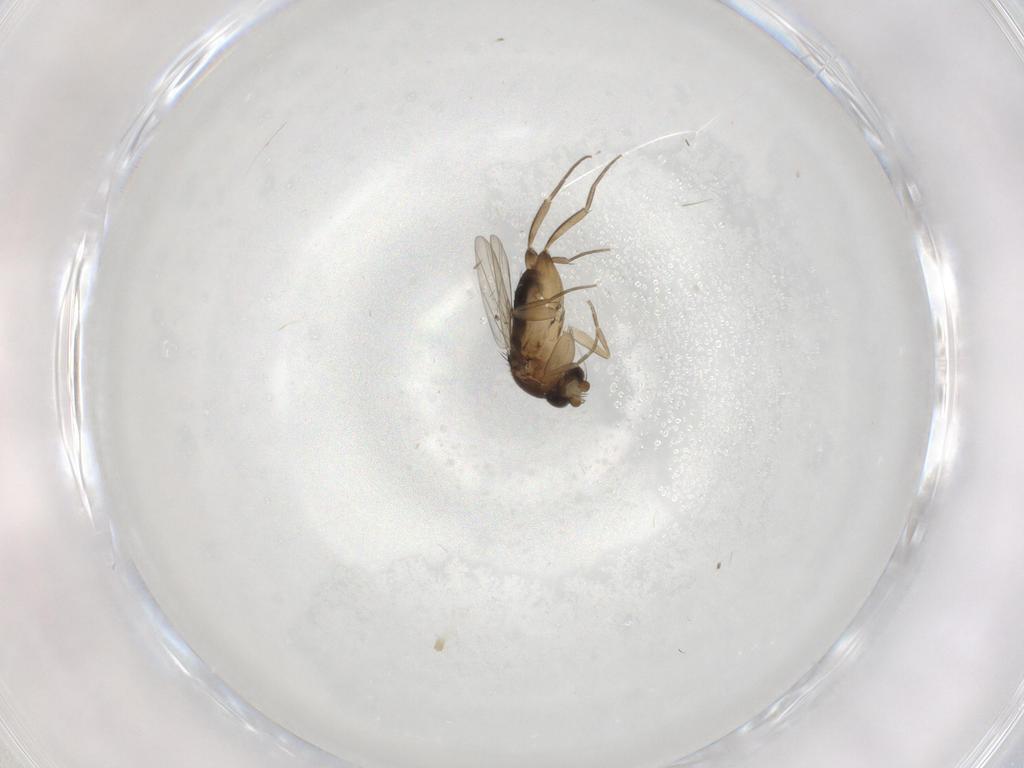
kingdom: Animalia
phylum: Arthropoda
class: Insecta
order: Diptera
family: Phoridae
